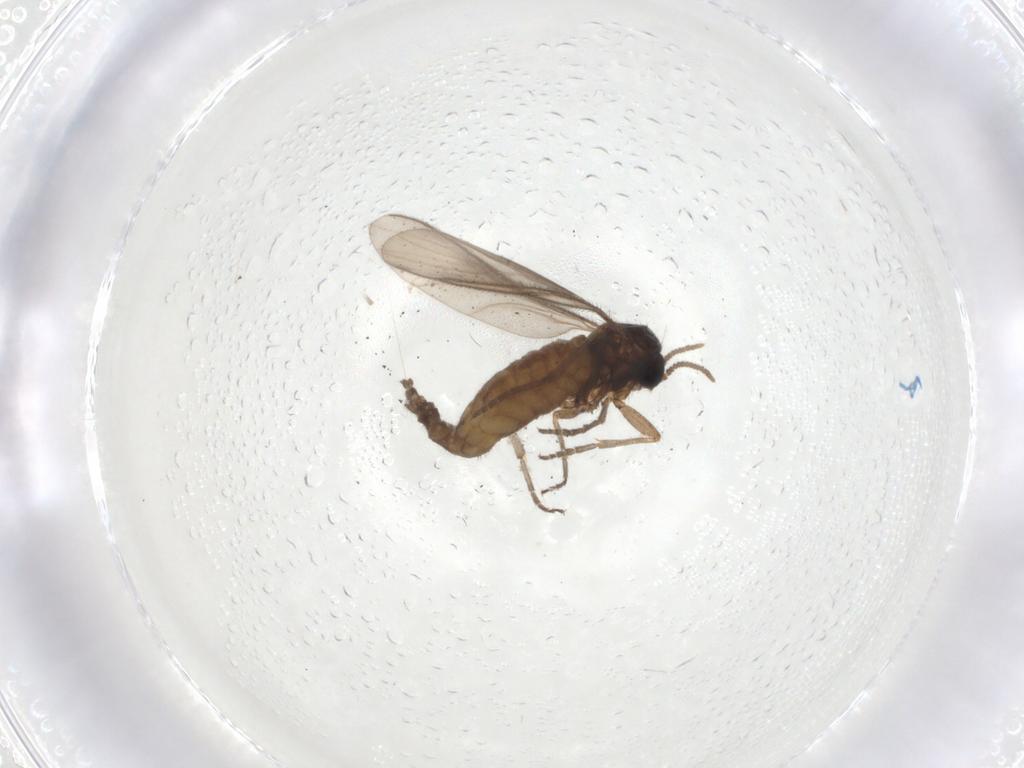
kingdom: Animalia
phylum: Arthropoda
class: Insecta
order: Diptera
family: Sciaridae
